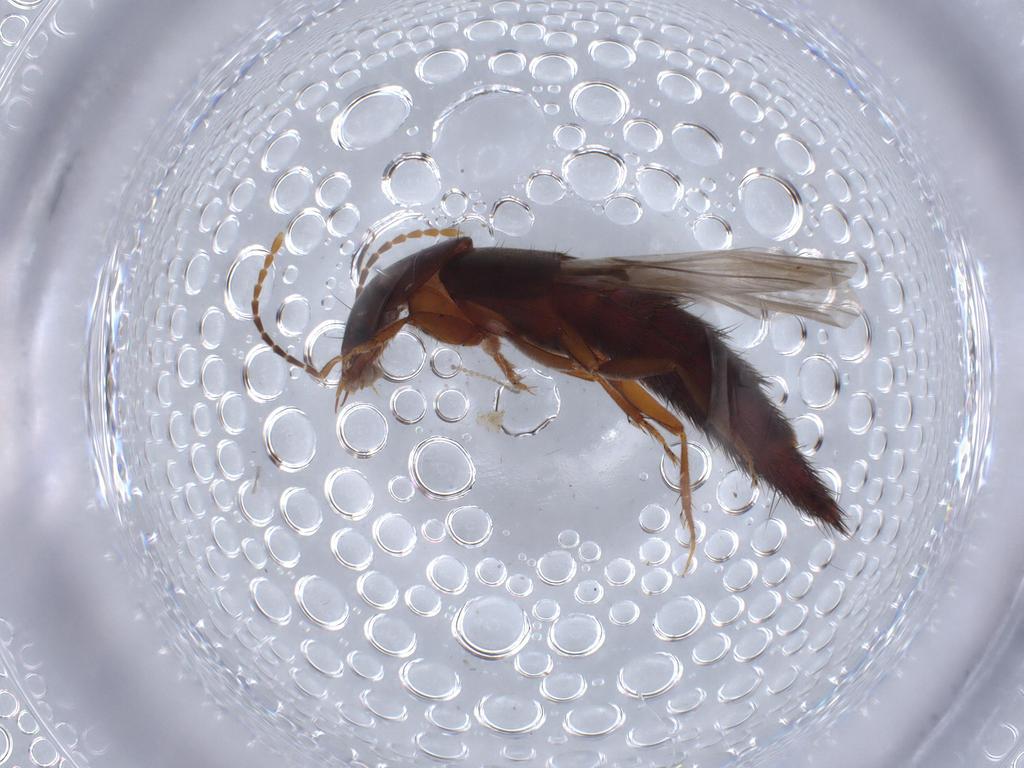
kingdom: Animalia
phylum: Arthropoda
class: Insecta
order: Coleoptera
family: Staphylinidae
